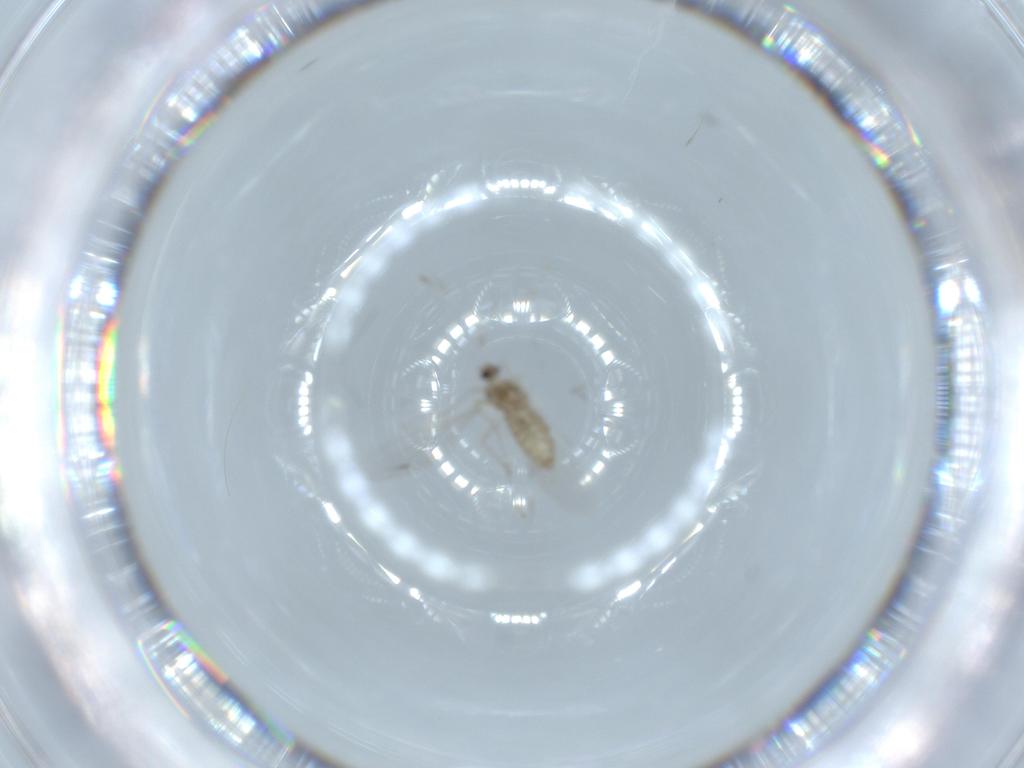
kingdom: Animalia
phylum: Arthropoda
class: Insecta
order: Diptera
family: Cecidomyiidae
